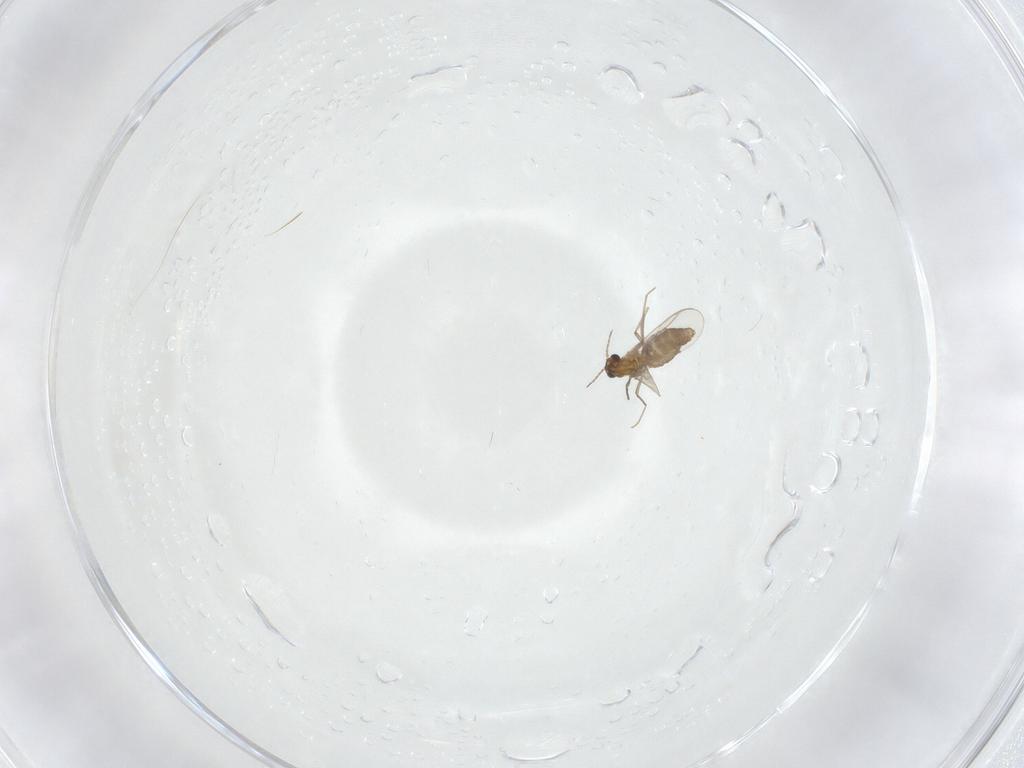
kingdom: Animalia
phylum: Arthropoda
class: Insecta
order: Diptera
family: Chironomidae
